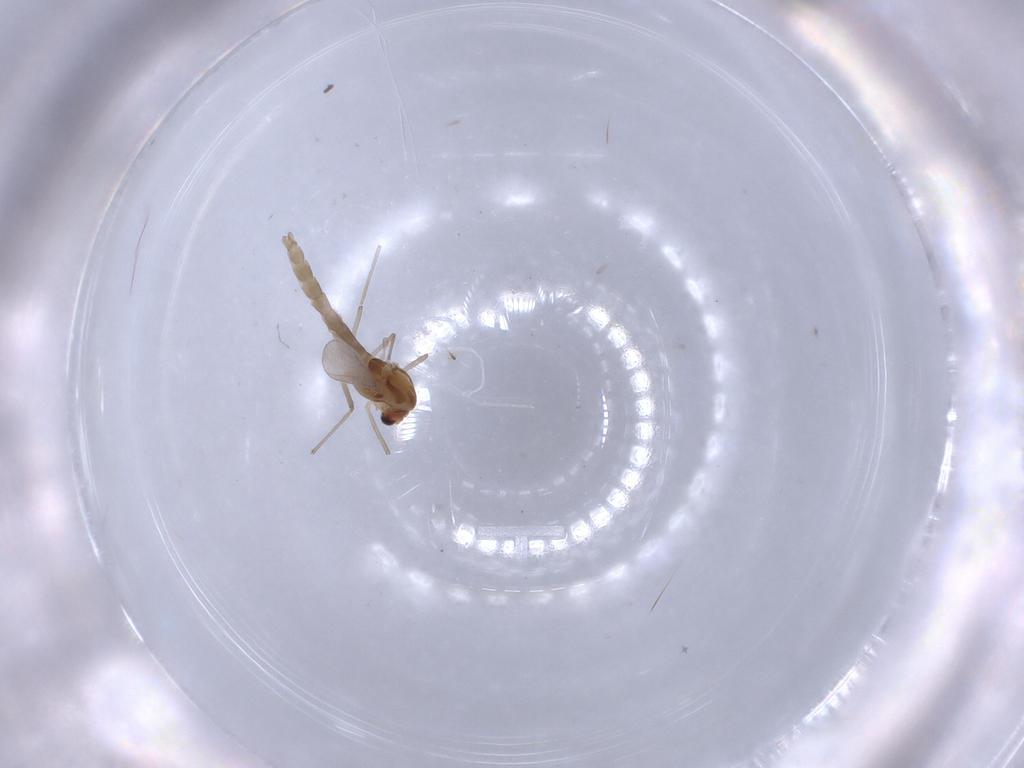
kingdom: Animalia
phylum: Arthropoda
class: Insecta
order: Diptera
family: Chironomidae
